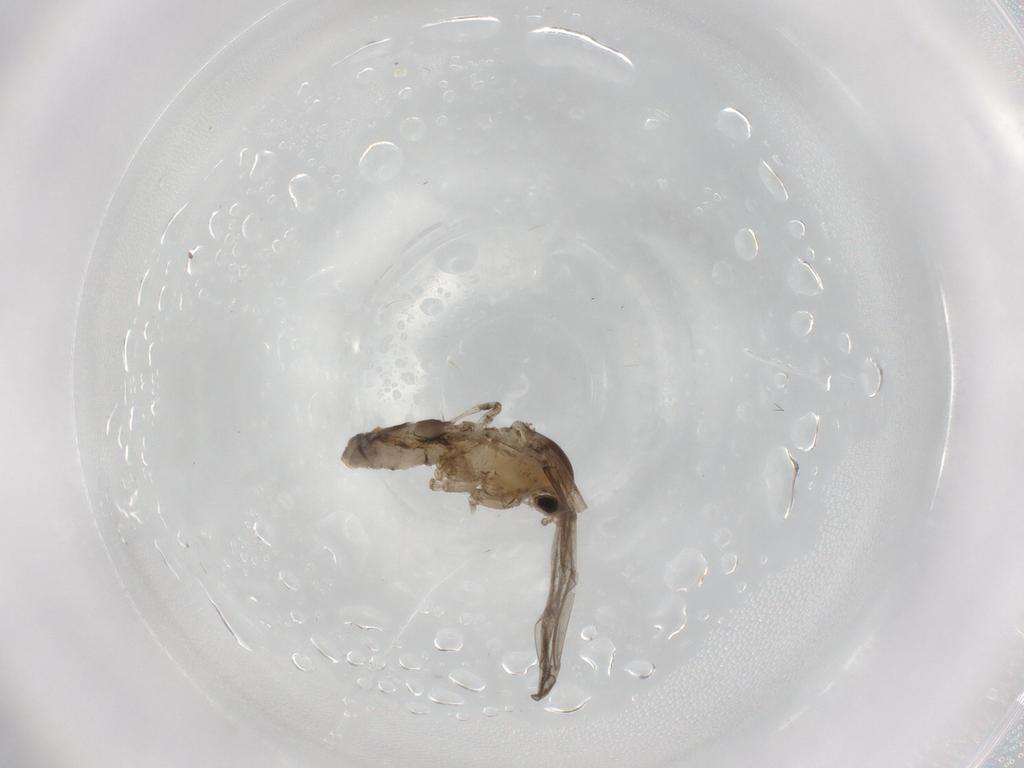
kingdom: Animalia
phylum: Arthropoda
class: Insecta
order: Diptera
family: Cecidomyiidae
